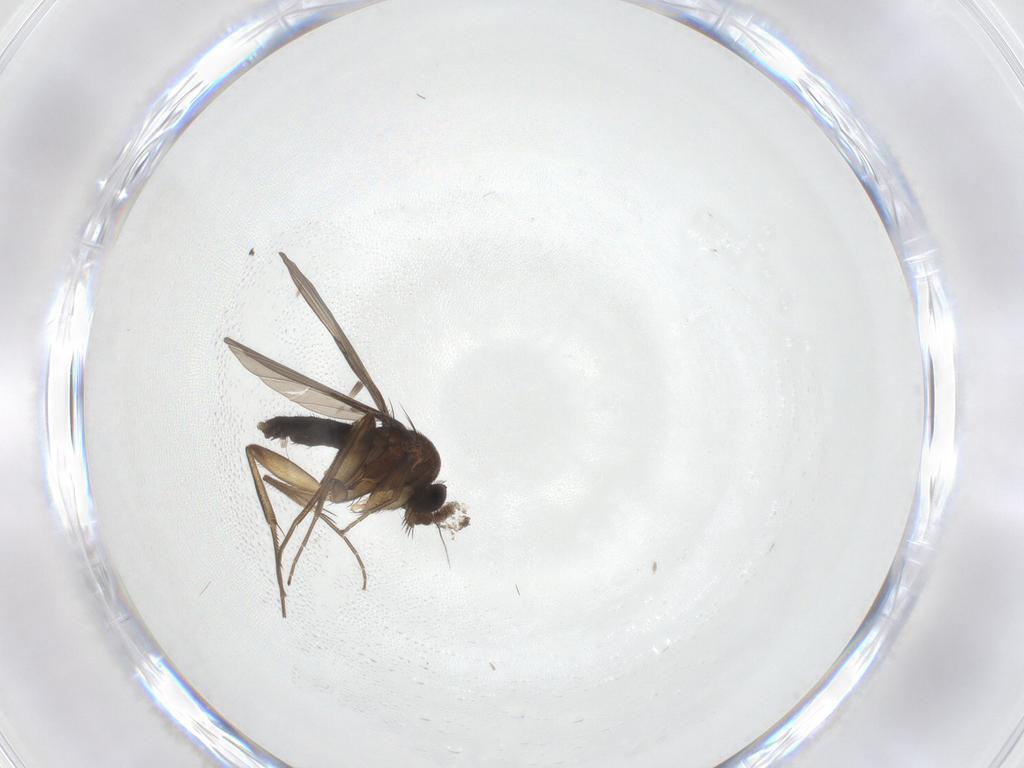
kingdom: Animalia
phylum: Arthropoda
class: Insecta
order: Diptera
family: Phoridae
